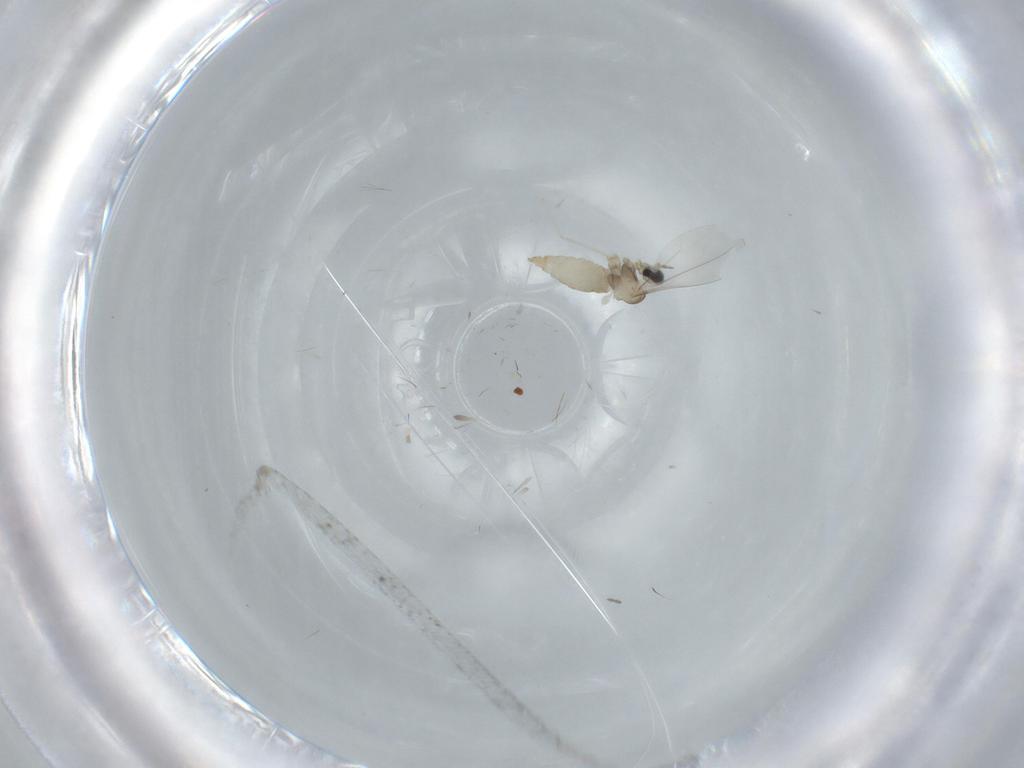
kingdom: Animalia
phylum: Arthropoda
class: Insecta
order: Diptera
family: Cecidomyiidae
